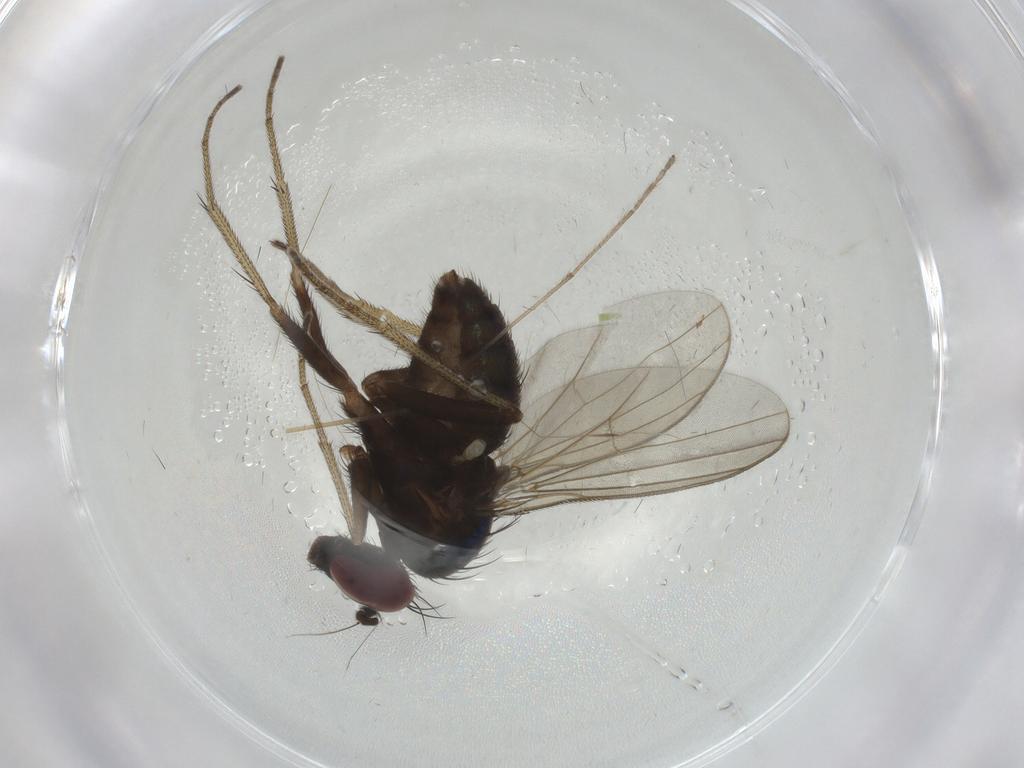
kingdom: Animalia
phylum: Arthropoda
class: Insecta
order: Diptera
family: Dolichopodidae
